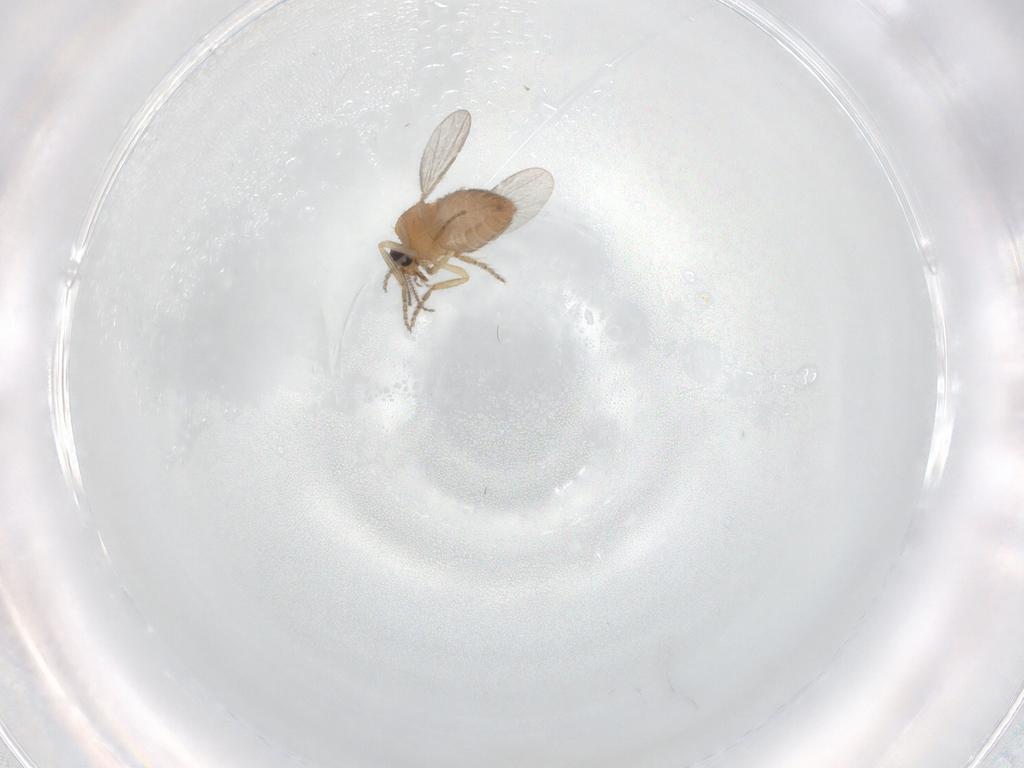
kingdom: Animalia
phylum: Arthropoda
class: Insecta
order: Diptera
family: Ceratopogonidae
